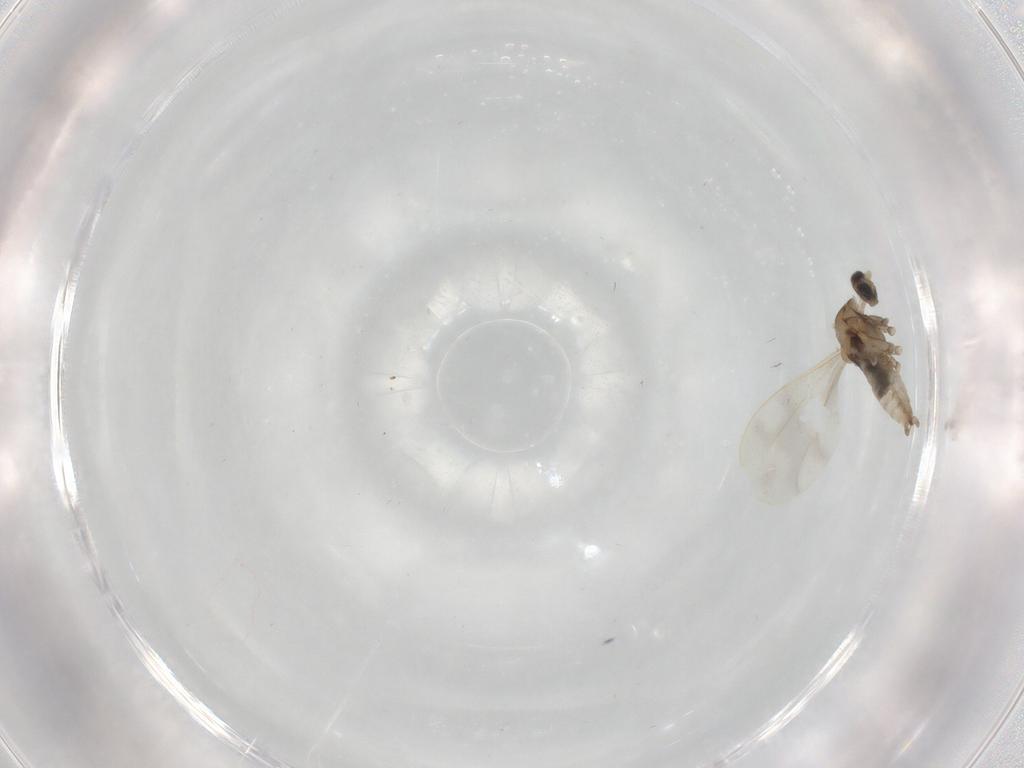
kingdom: Animalia
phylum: Arthropoda
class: Insecta
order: Diptera
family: Cecidomyiidae
